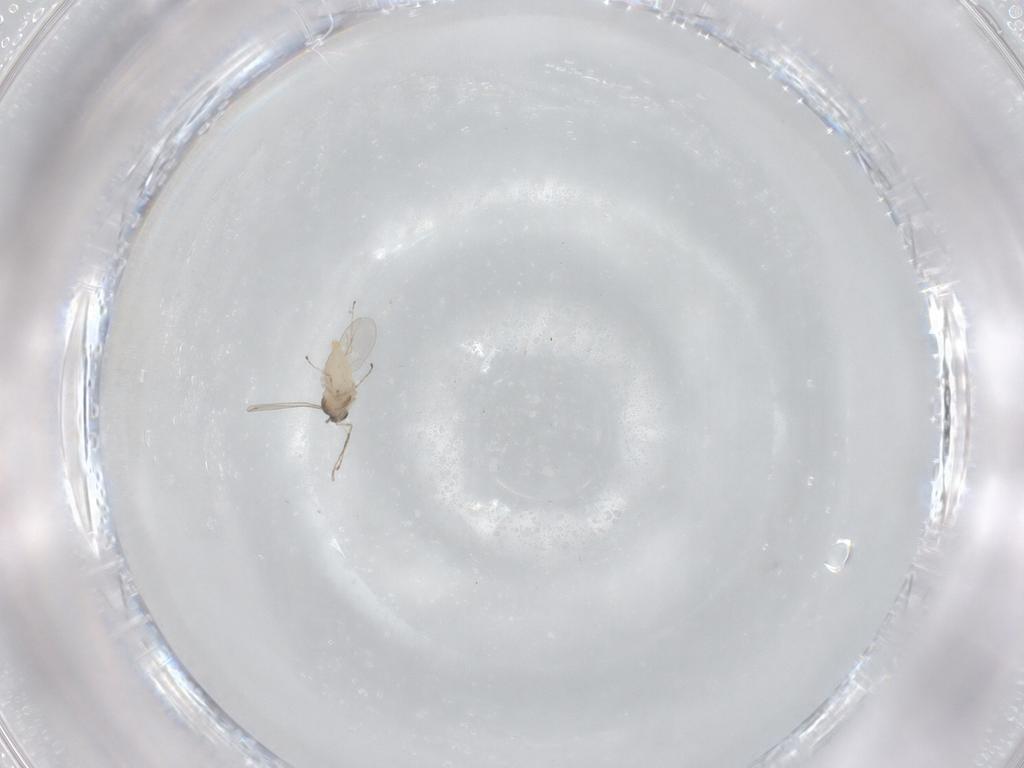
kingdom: Animalia
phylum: Arthropoda
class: Insecta
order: Diptera
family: Cecidomyiidae
